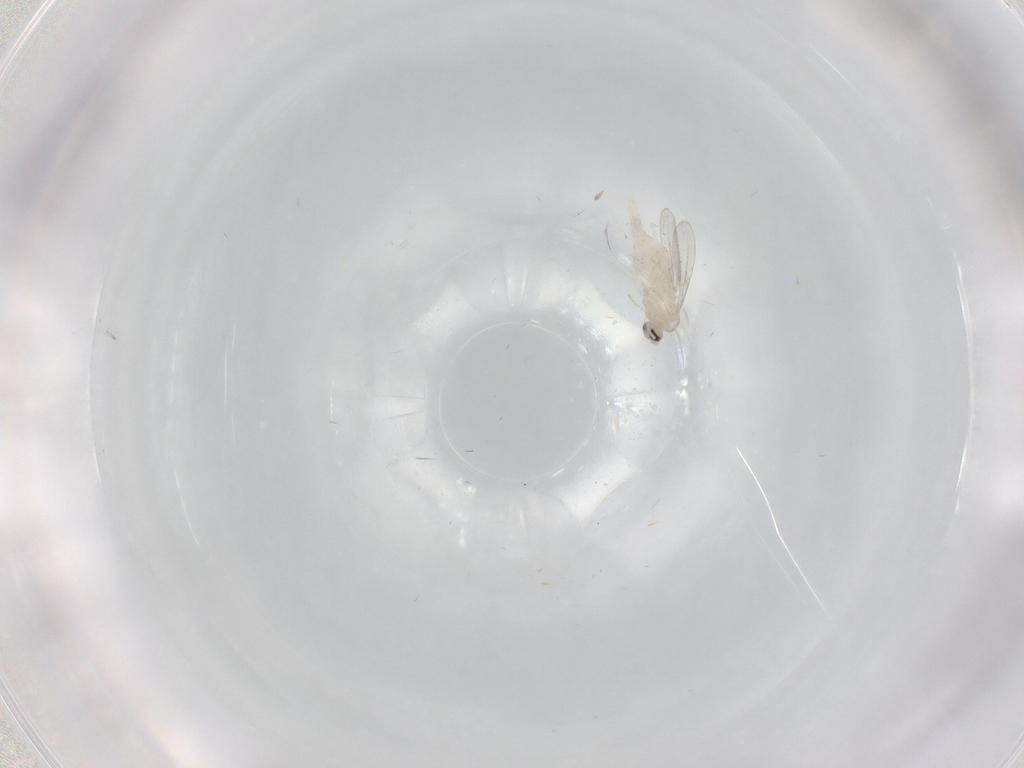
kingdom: Animalia
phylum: Arthropoda
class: Insecta
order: Diptera
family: Cecidomyiidae
